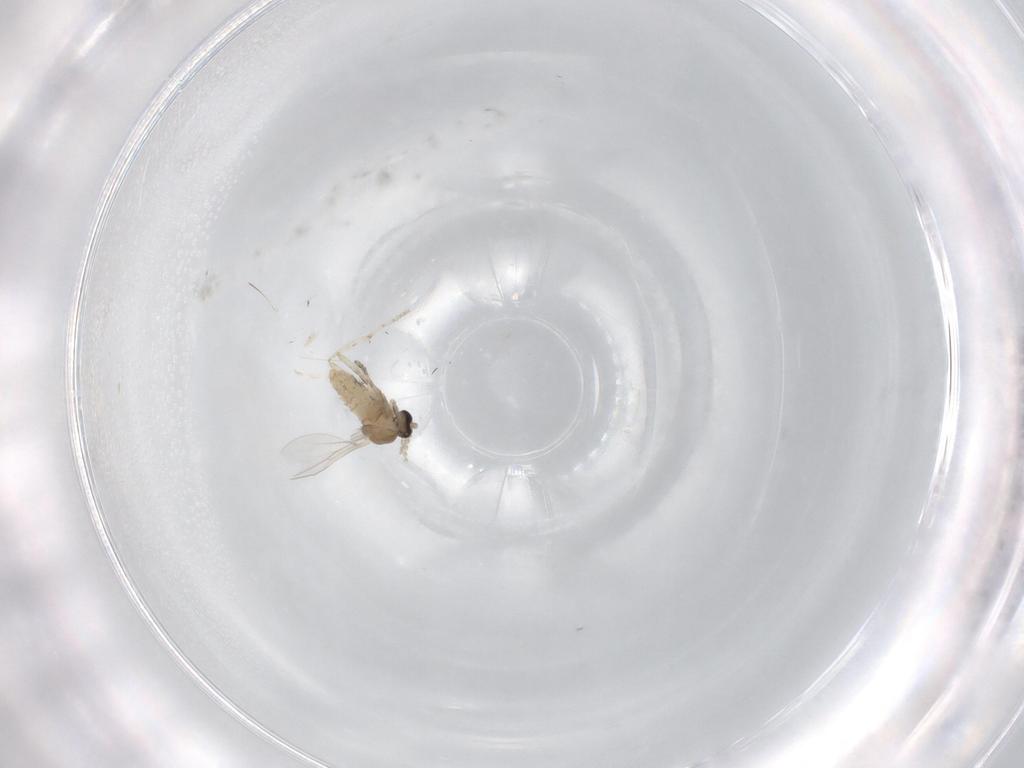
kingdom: Animalia
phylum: Arthropoda
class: Insecta
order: Diptera
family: Cecidomyiidae
